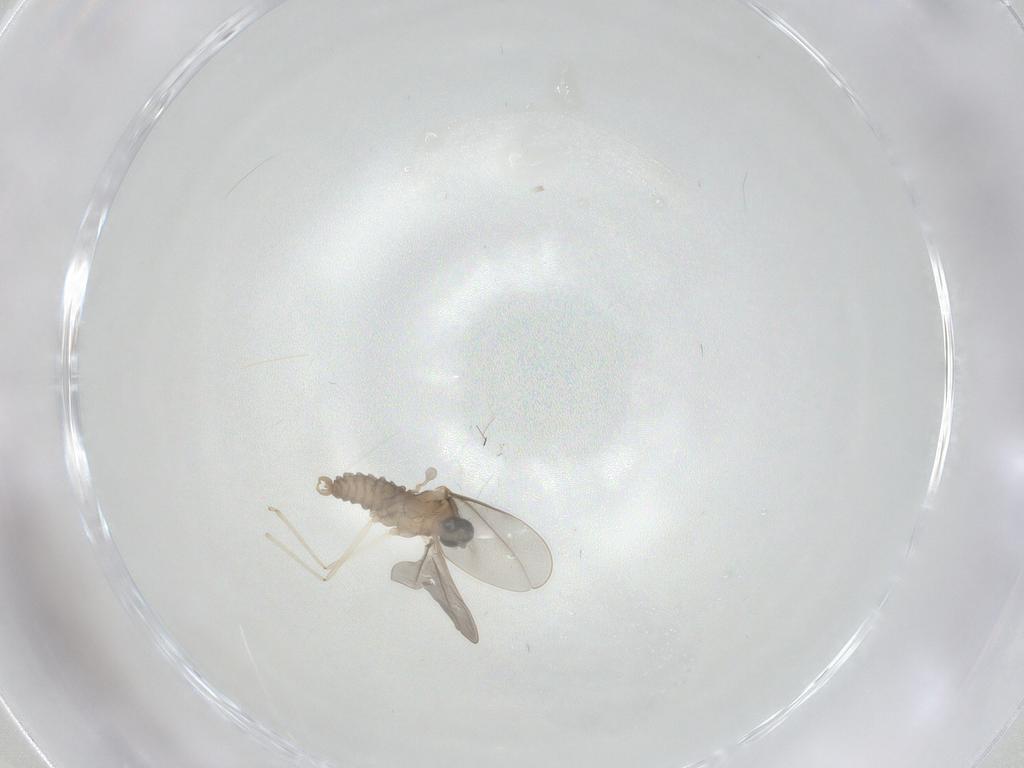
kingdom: Animalia
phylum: Arthropoda
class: Insecta
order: Diptera
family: Cecidomyiidae
